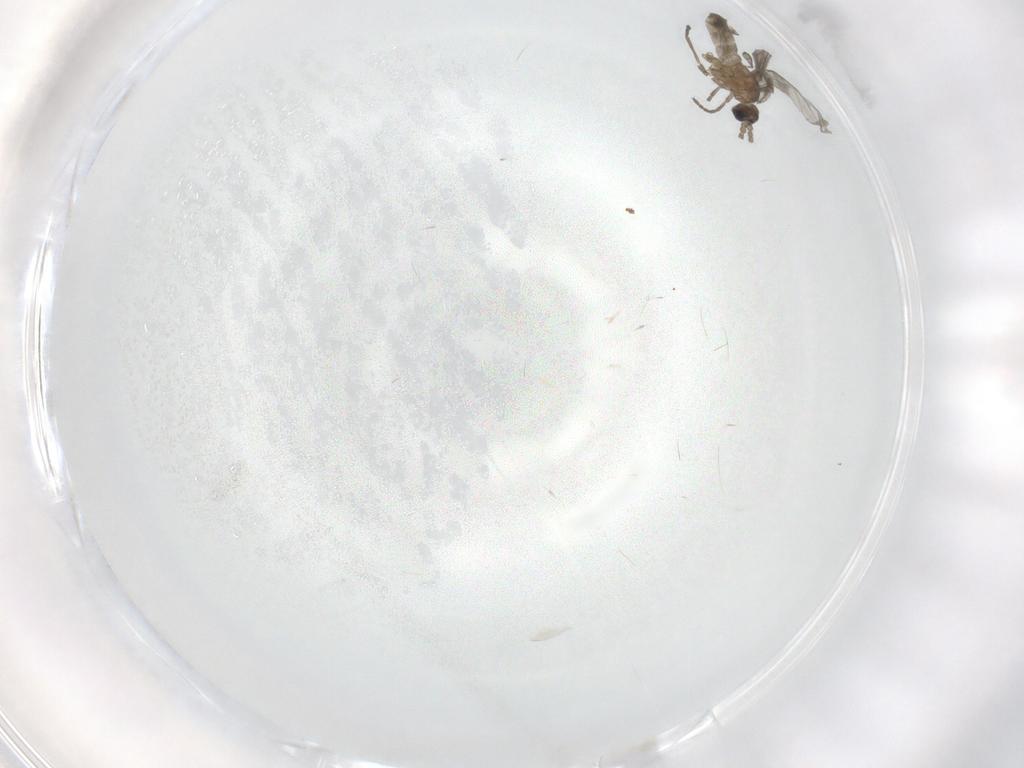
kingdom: Animalia
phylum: Arthropoda
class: Insecta
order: Diptera
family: Sciaridae
